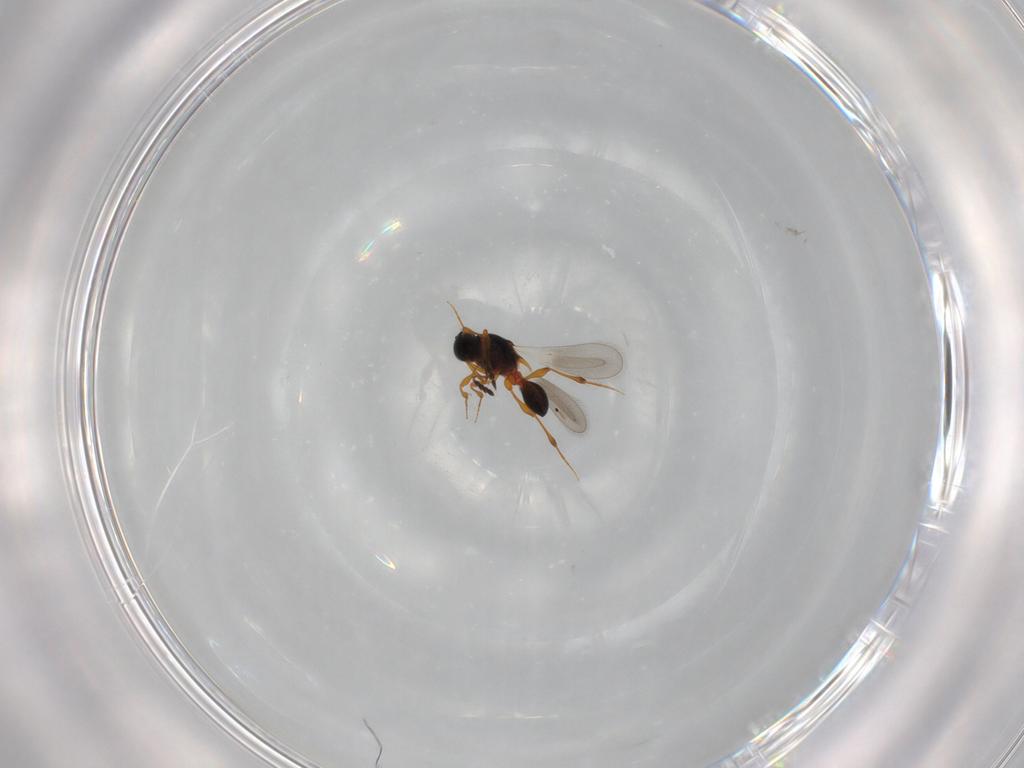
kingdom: Animalia
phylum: Arthropoda
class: Insecta
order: Hymenoptera
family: Platygastridae
